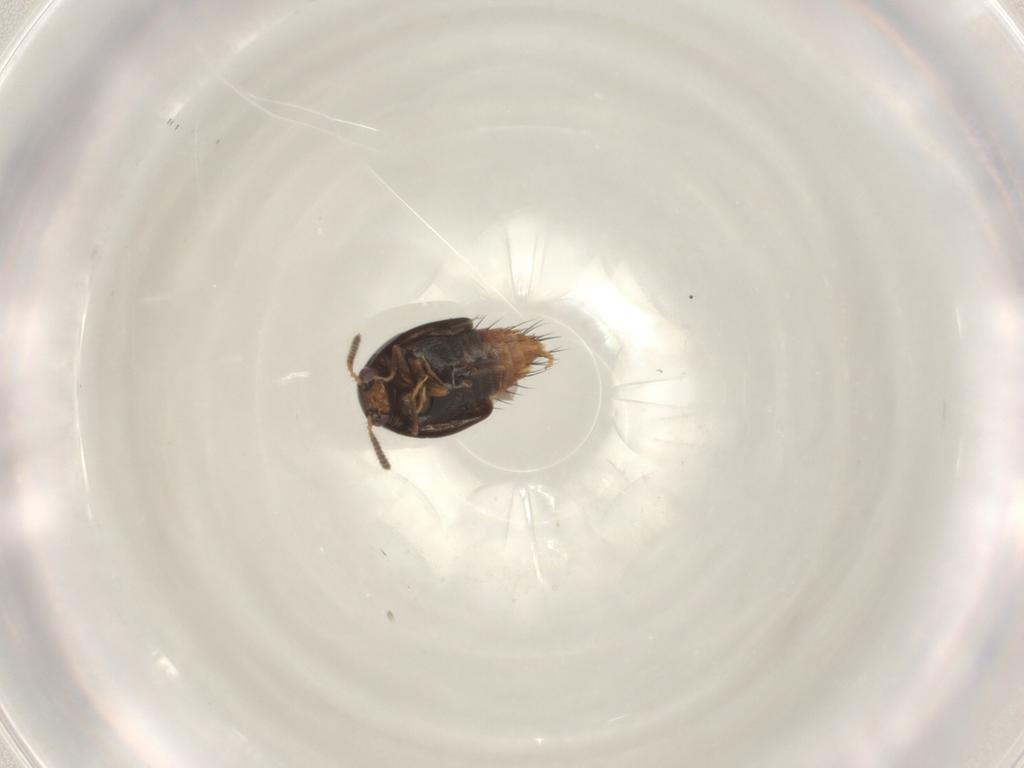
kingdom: Animalia
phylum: Arthropoda
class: Insecta
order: Coleoptera
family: Staphylinidae
